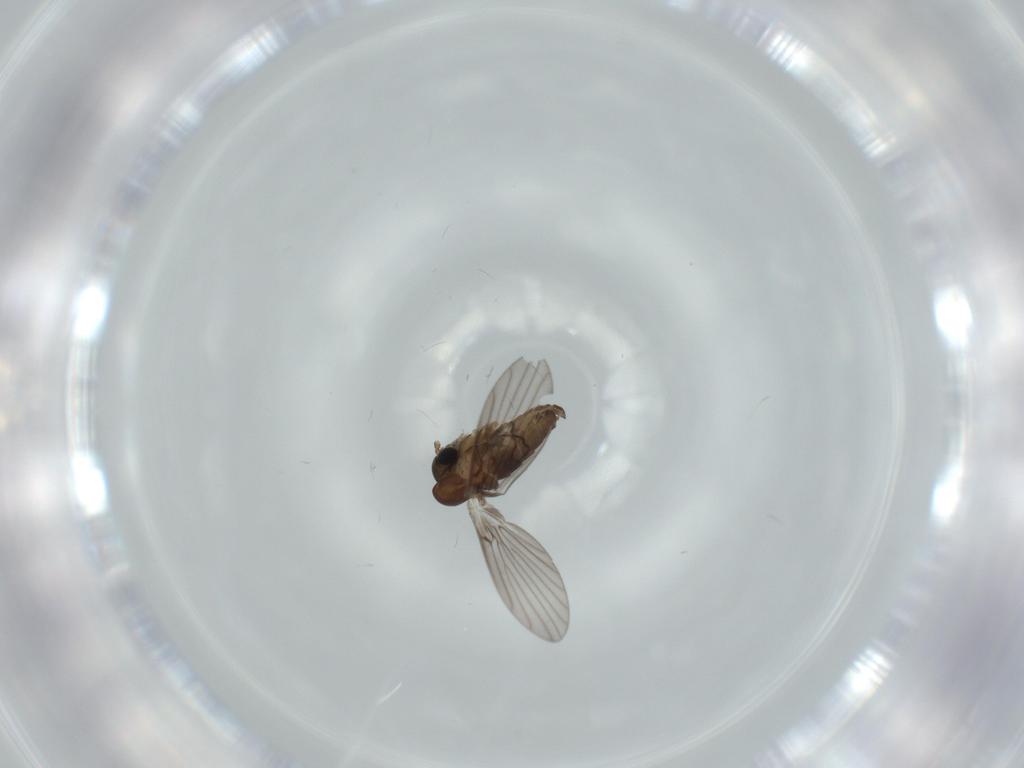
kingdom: Animalia
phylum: Arthropoda
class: Insecta
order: Diptera
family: Psychodidae
